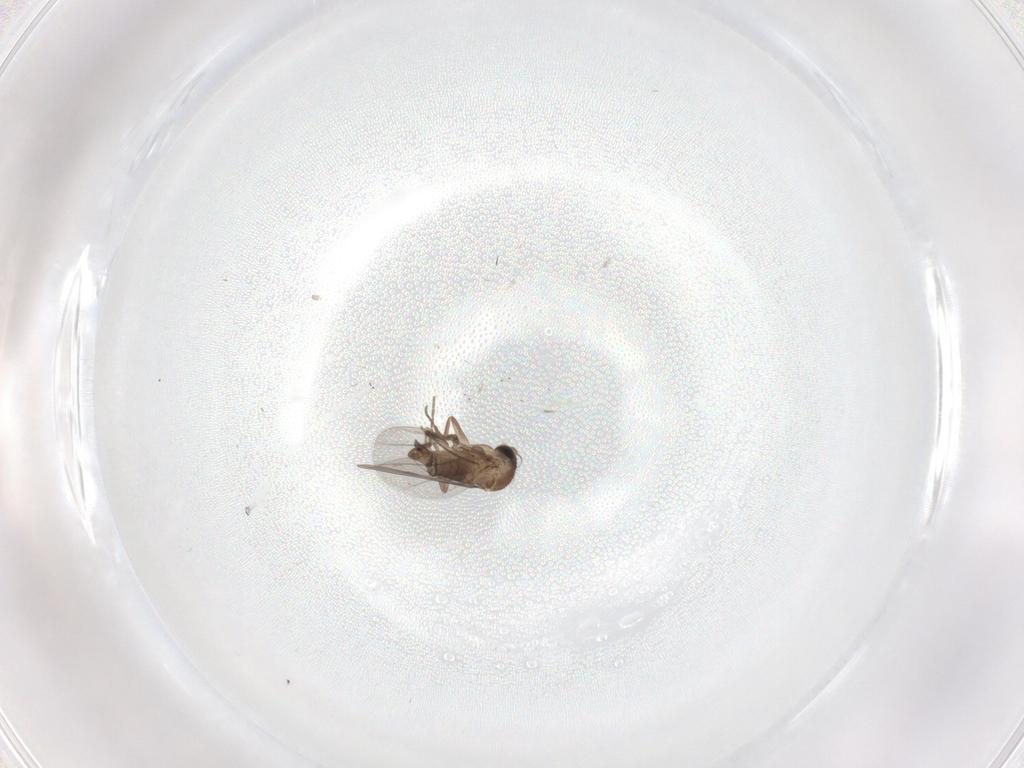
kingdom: Animalia
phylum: Arthropoda
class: Insecta
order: Diptera
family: Chironomidae
